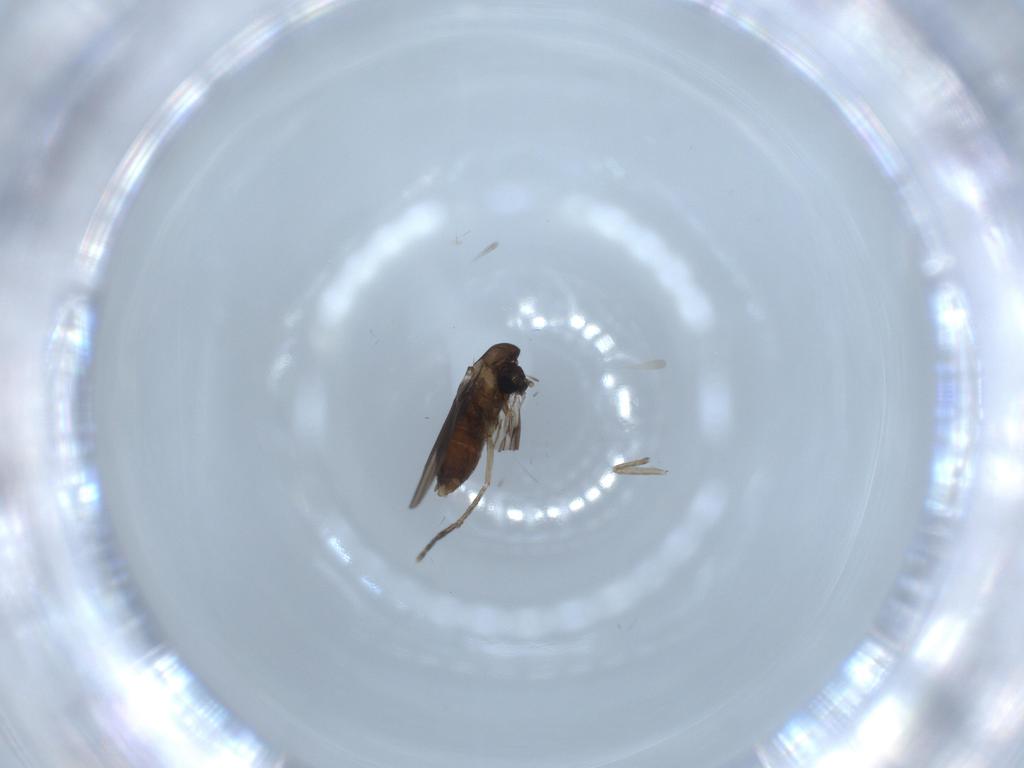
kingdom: Animalia
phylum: Arthropoda
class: Insecta
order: Diptera
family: Psychodidae
